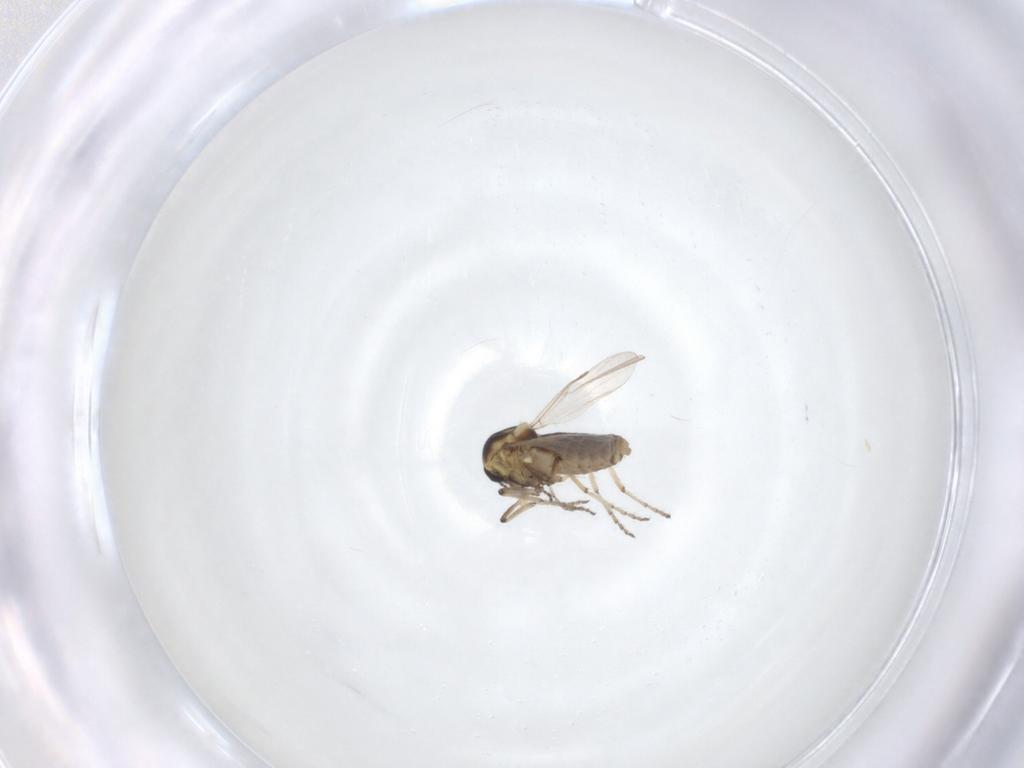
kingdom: Animalia
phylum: Arthropoda
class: Insecta
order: Diptera
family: Ceratopogonidae
